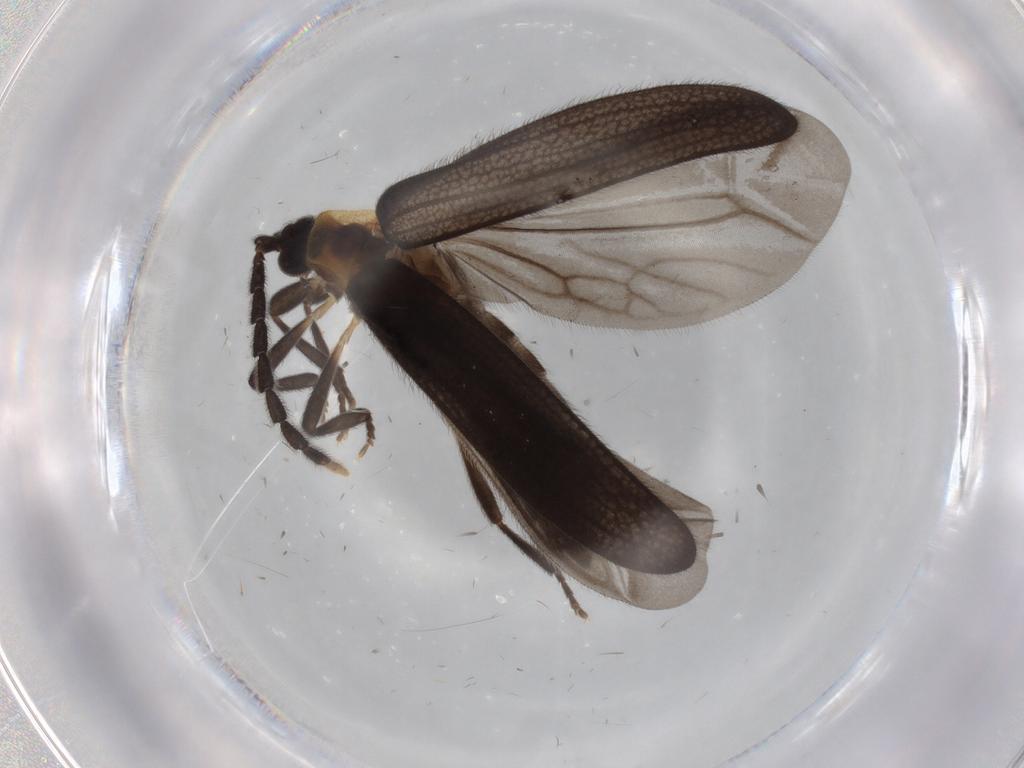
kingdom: Animalia
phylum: Arthropoda
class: Insecta
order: Coleoptera
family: Lycidae
